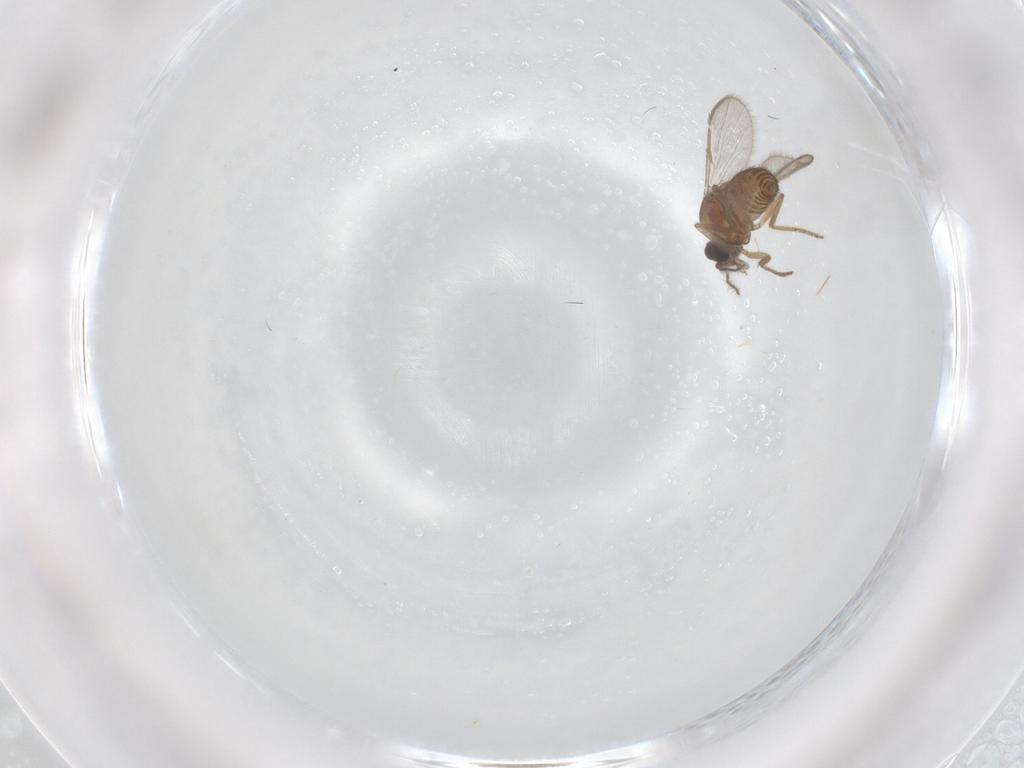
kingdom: Animalia
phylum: Arthropoda
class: Insecta
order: Diptera
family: Ceratopogonidae
